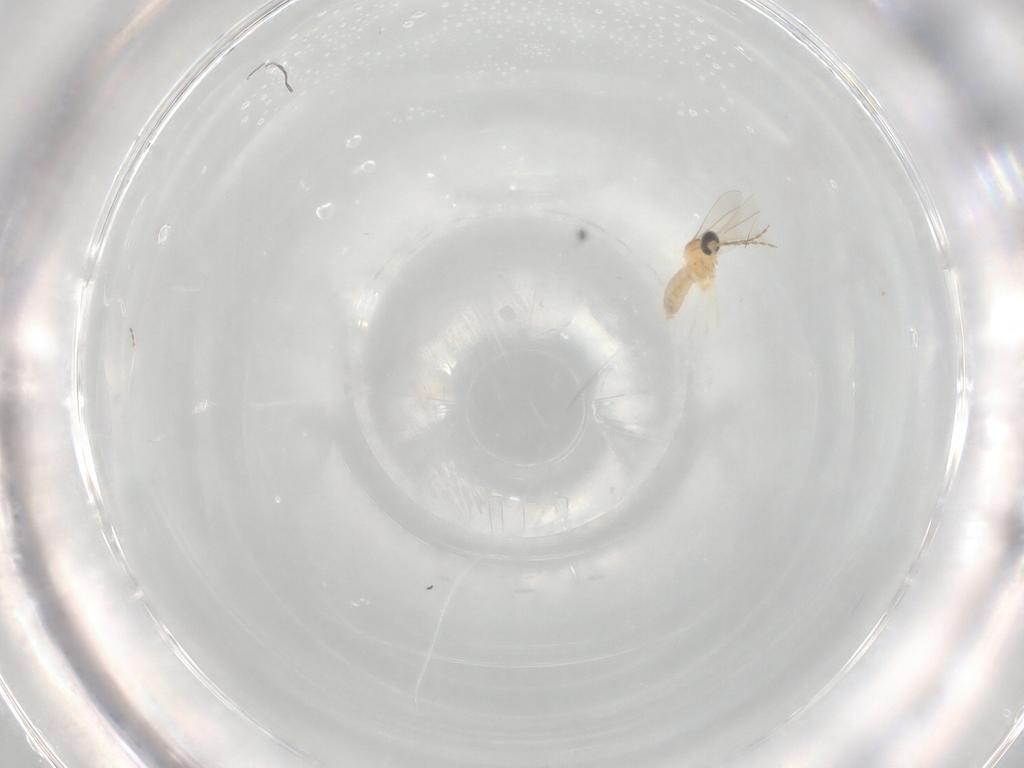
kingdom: Animalia
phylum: Arthropoda
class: Insecta
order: Diptera
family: Cecidomyiidae
